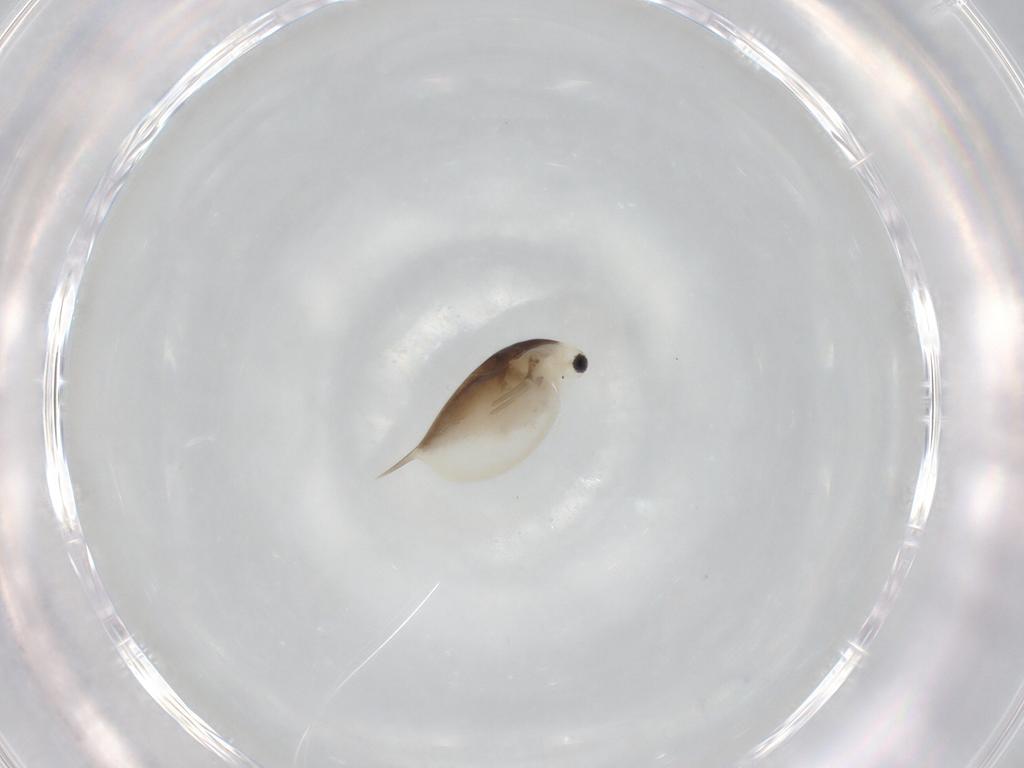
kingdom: Animalia
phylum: Arthropoda
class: Branchiopoda
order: Diplostraca
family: Daphniidae
